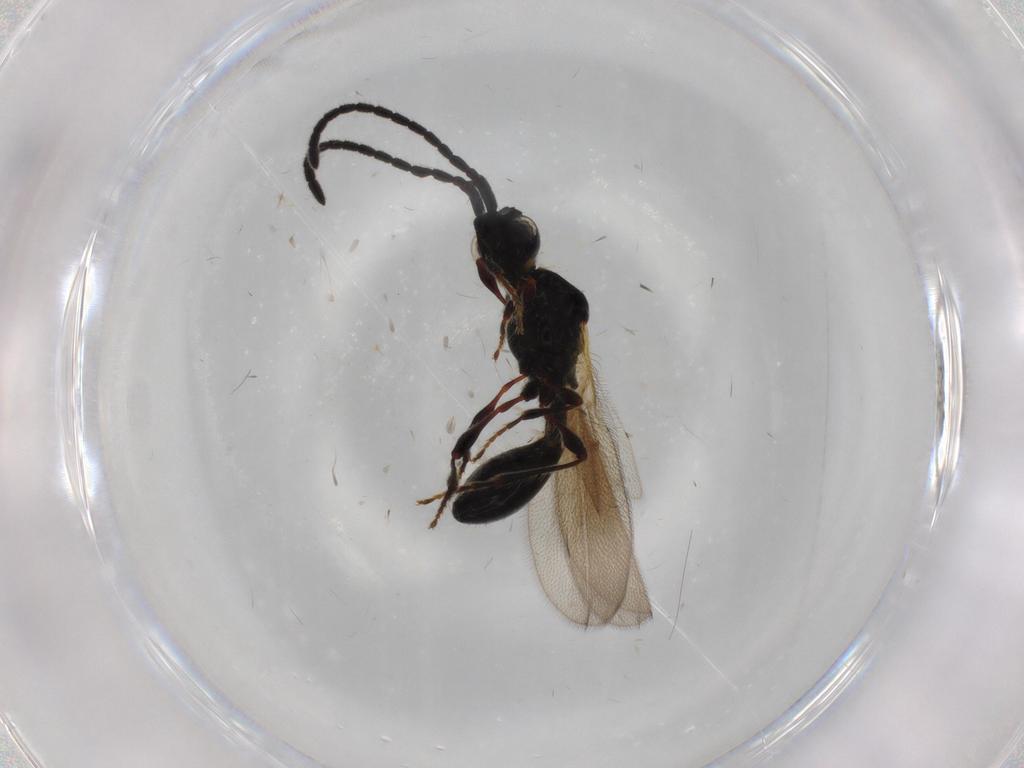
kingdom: Animalia
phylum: Arthropoda
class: Insecta
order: Hymenoptera
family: Diapriidae
